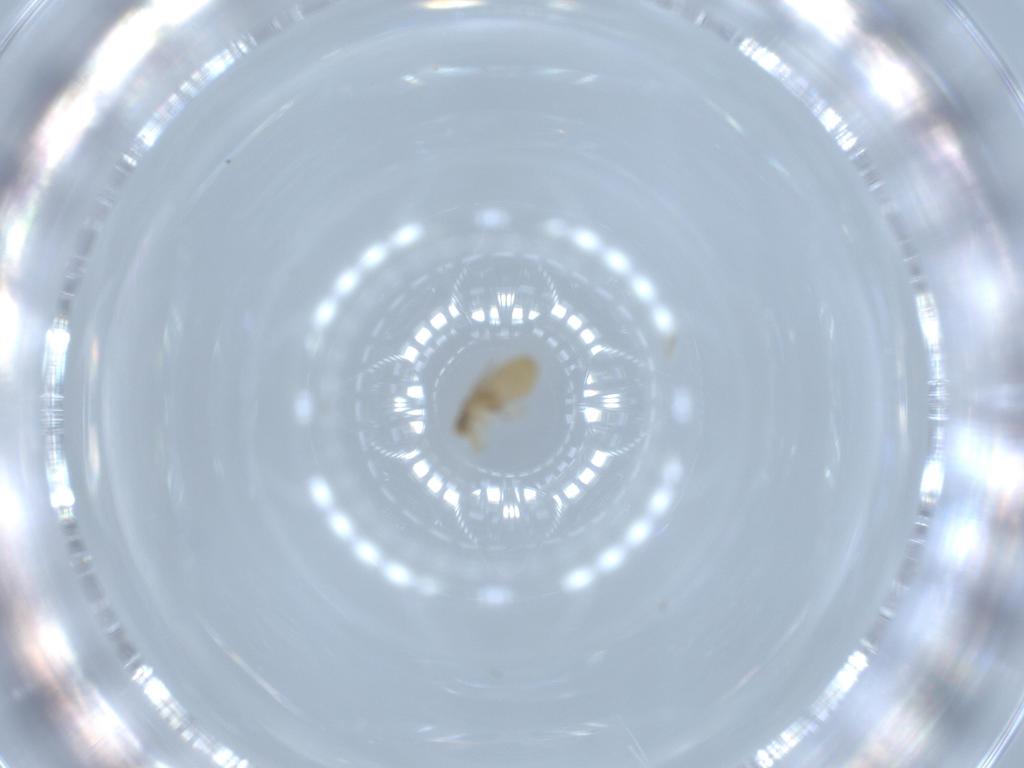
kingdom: Animalia
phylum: Arthropoda
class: Insecta
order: Diptera
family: Phoridae
